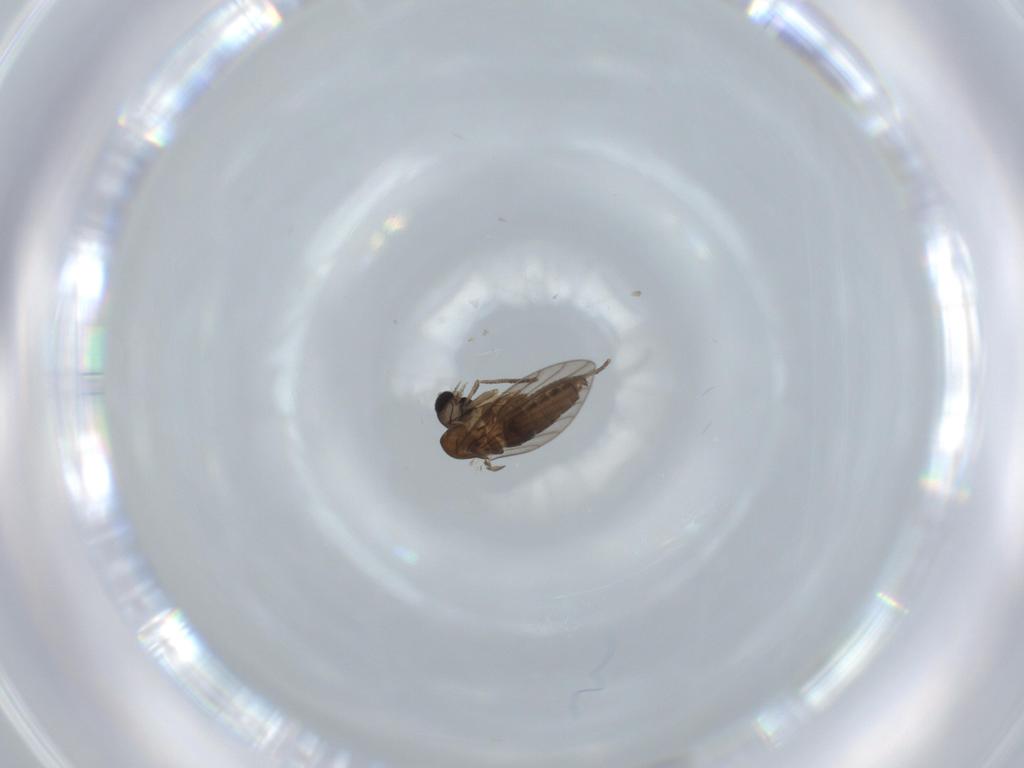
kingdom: Animalia
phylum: Arthropoda
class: Insecta
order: Diptera
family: Psychodidae
